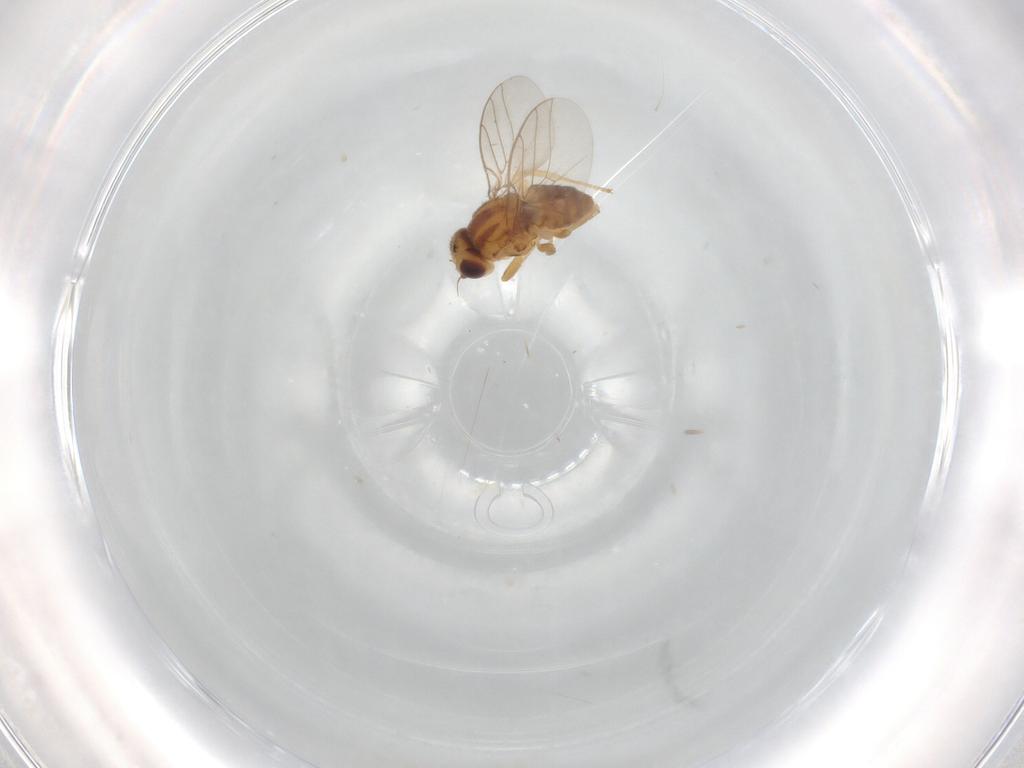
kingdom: Animalia
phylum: Arthropoda
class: Insecta
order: Diptera
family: Chloropidae
